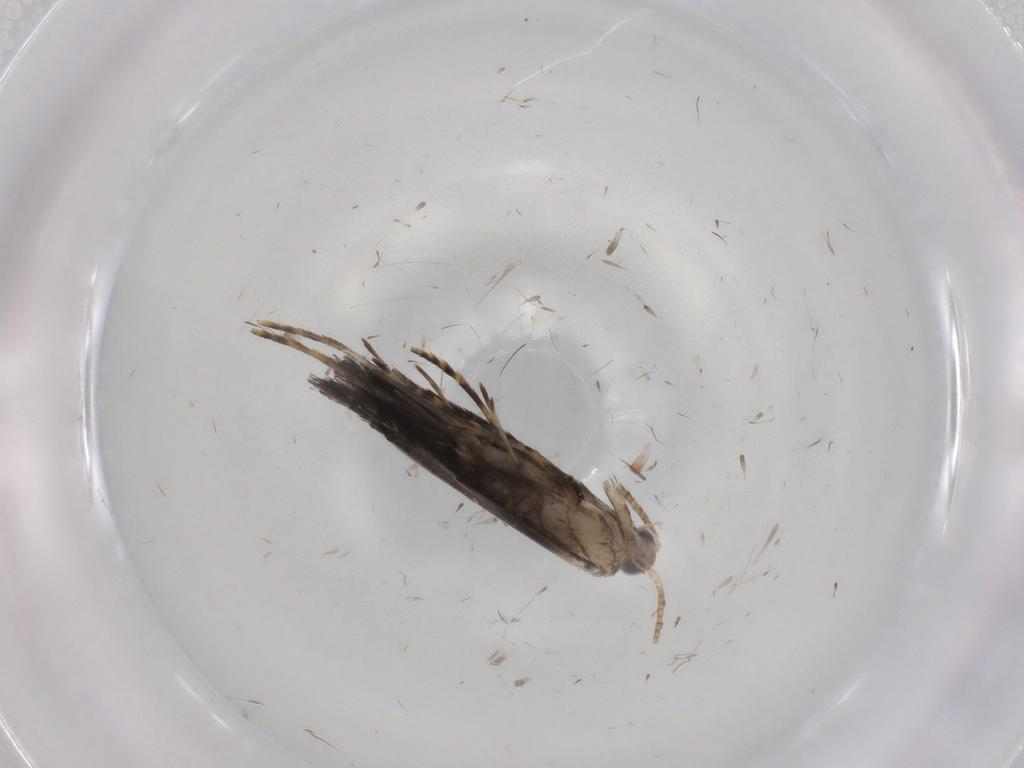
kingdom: Animalia
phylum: Arthropoda
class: Insecta
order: Lepidoptera
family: Tineidae
